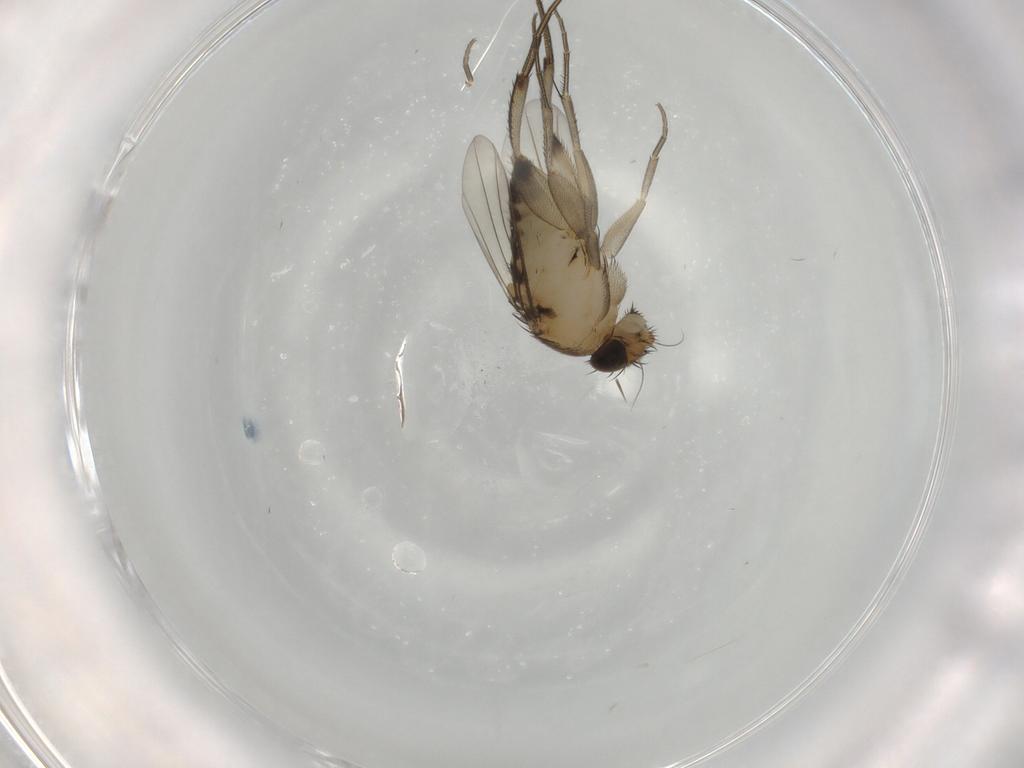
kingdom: Animalia
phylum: Arthropoda
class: Insecta
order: Diptera
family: Phoridae
